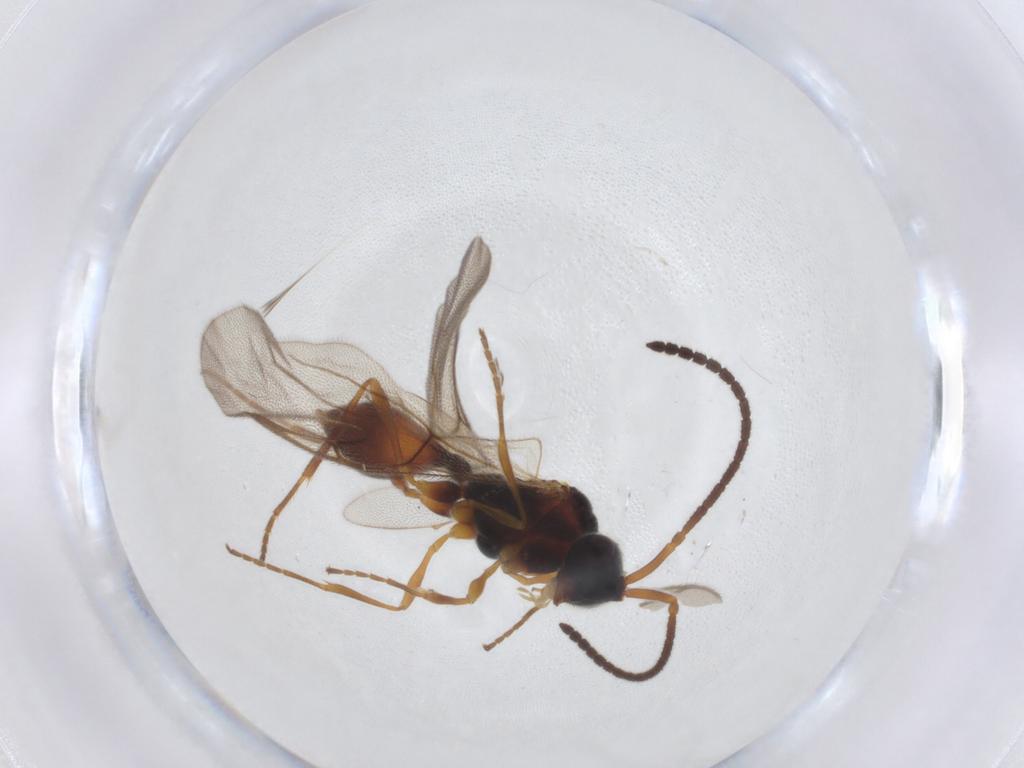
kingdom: Animalia
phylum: Arthropoda
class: Insecta
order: Hymenoptera
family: Diapriidae
